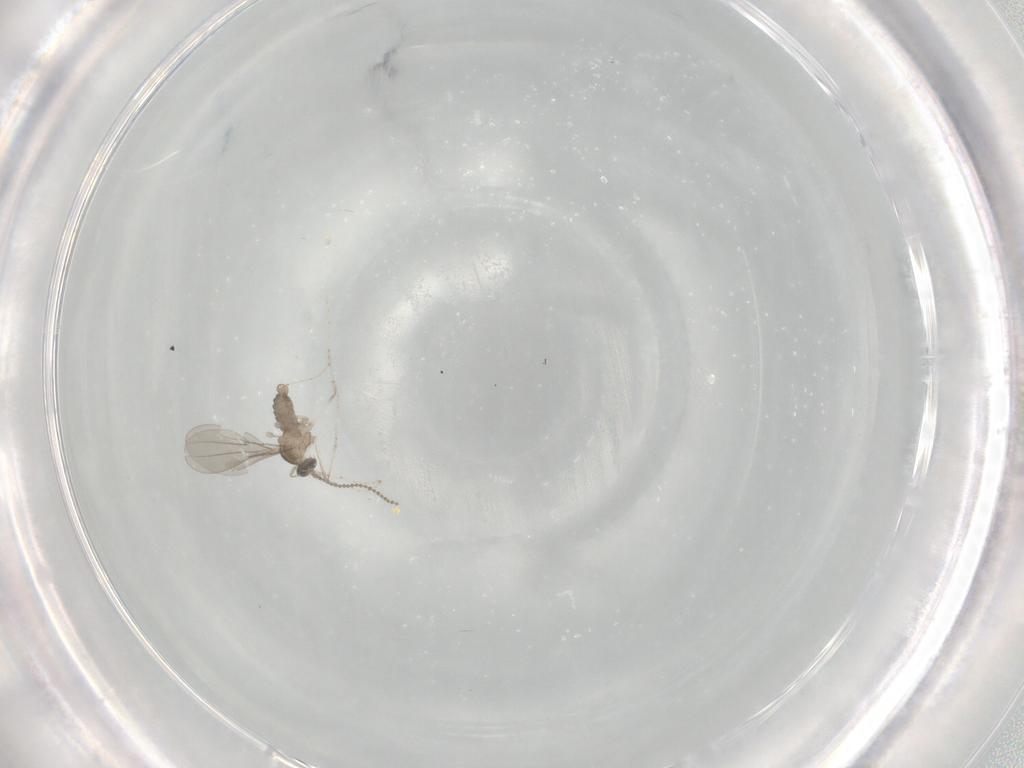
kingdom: Animalia
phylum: Arthropoda
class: Insecta
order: Diptera
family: Cecidomyiidae
